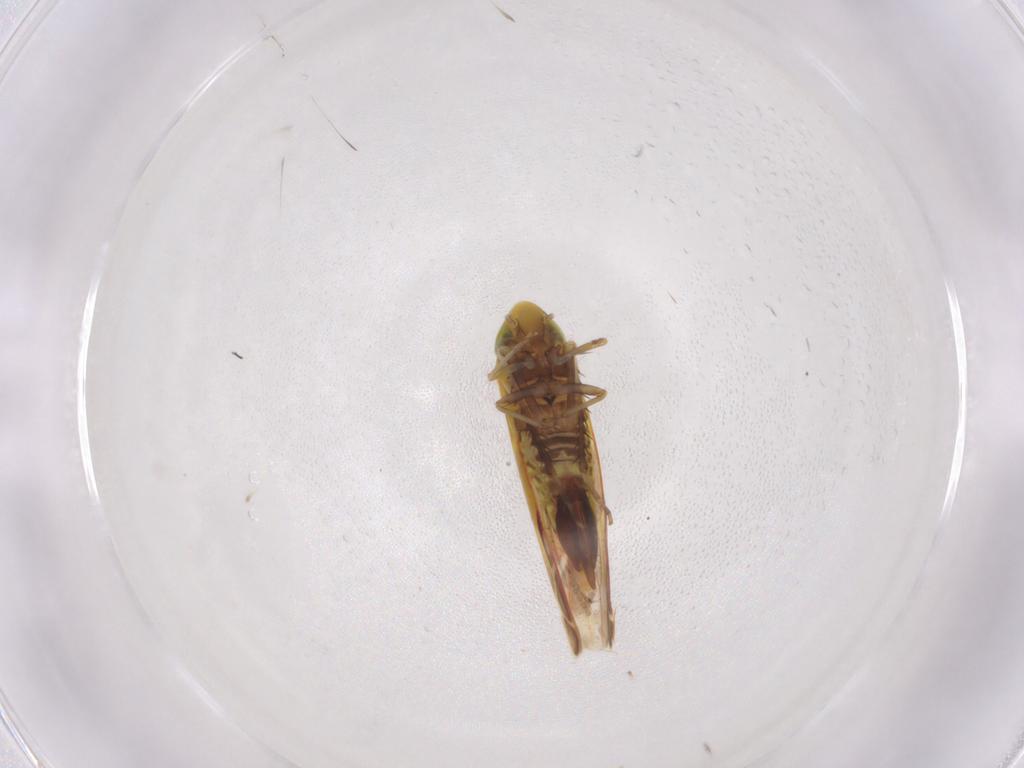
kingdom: Animalia
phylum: Arthropoda
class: Insecta
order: Hemiptera
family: Cicadellidae
